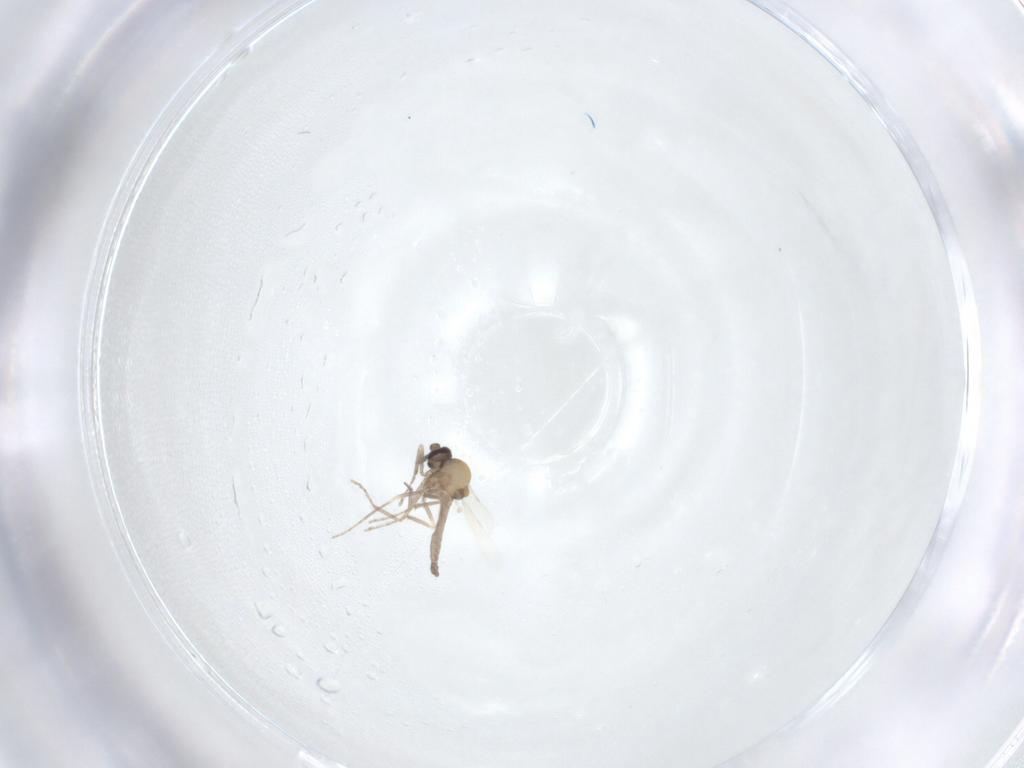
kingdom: Animalia
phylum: Arthropoda
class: Insecta
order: Diptera
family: Limoniidae
